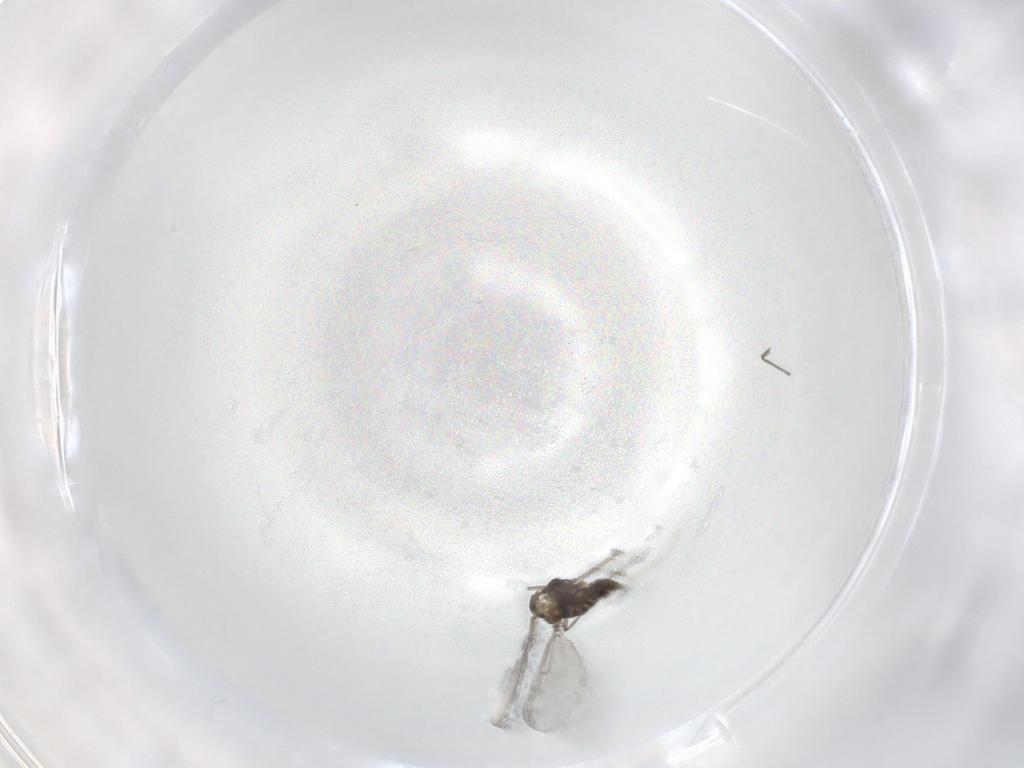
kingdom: Animalia
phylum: Arthropoda
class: Insecta
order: Diptera
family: Chironomidae
